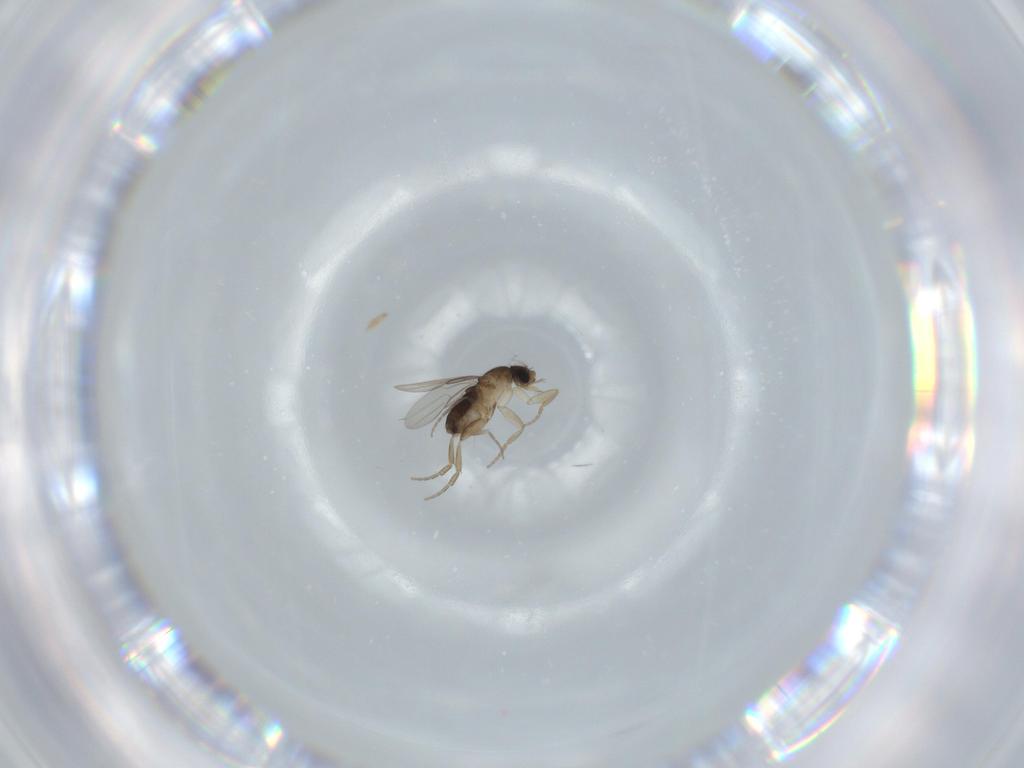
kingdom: Animalia
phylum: Arthropoda
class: Insecta
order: Diptera
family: Phoridae
